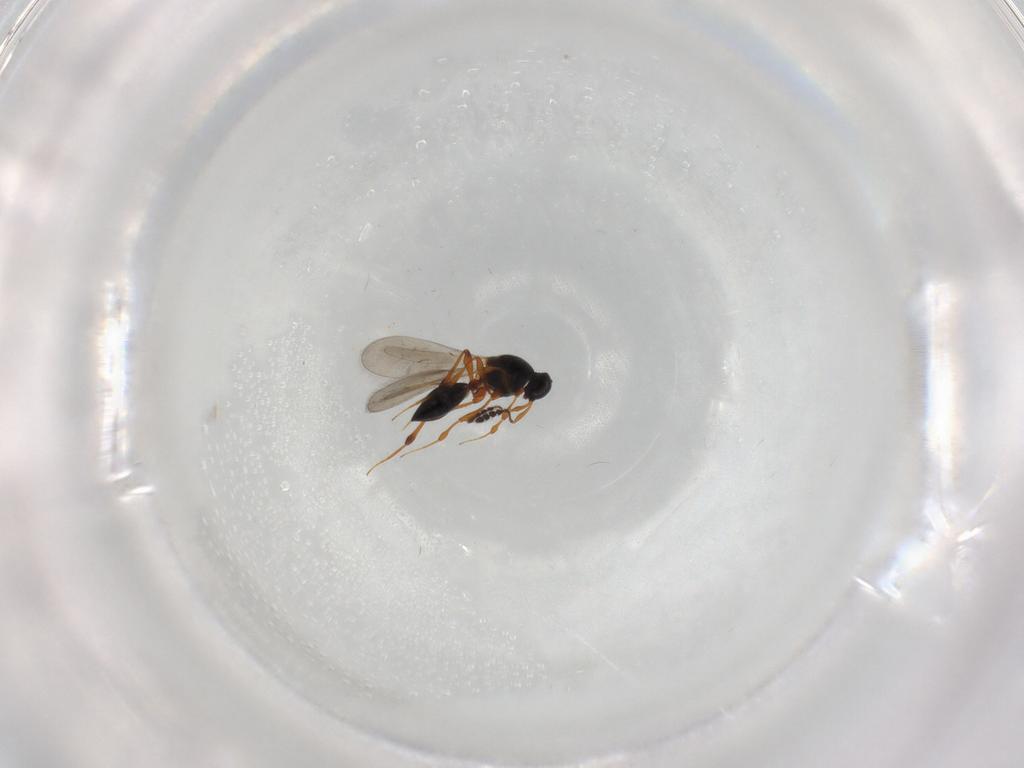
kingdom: Animalia
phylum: Arthropoda
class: Insecta
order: Hymenoptera
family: Platygastridae
